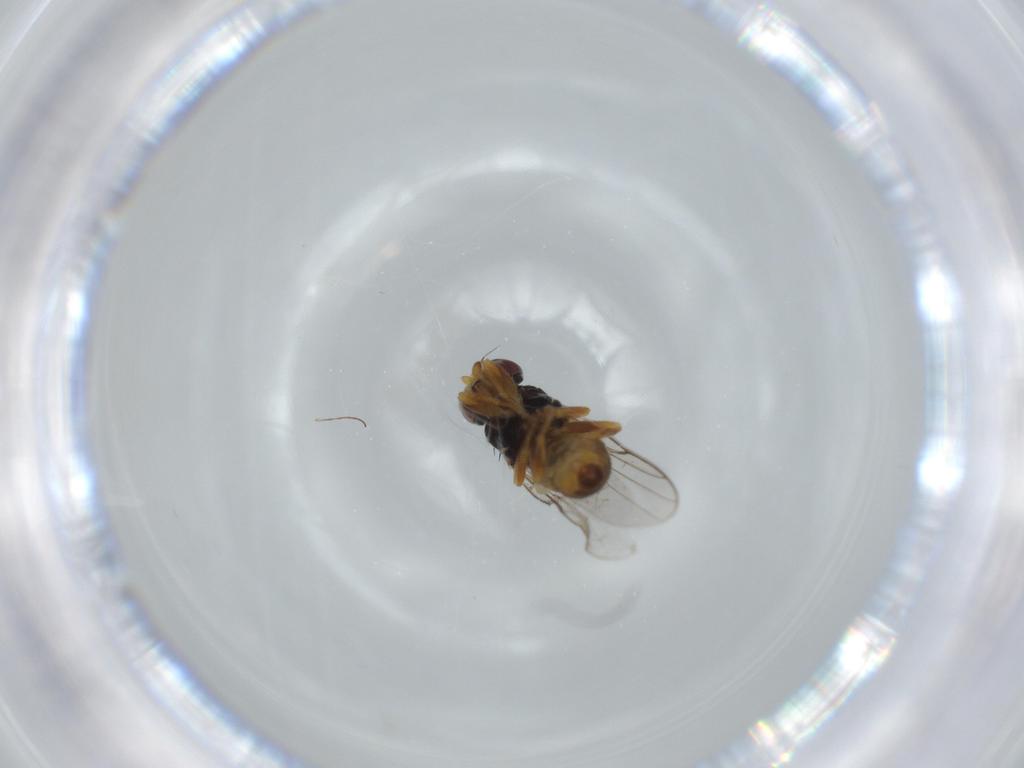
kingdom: Animalia
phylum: Arthropoda
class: Insecta
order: Diptera
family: Chloropidae
